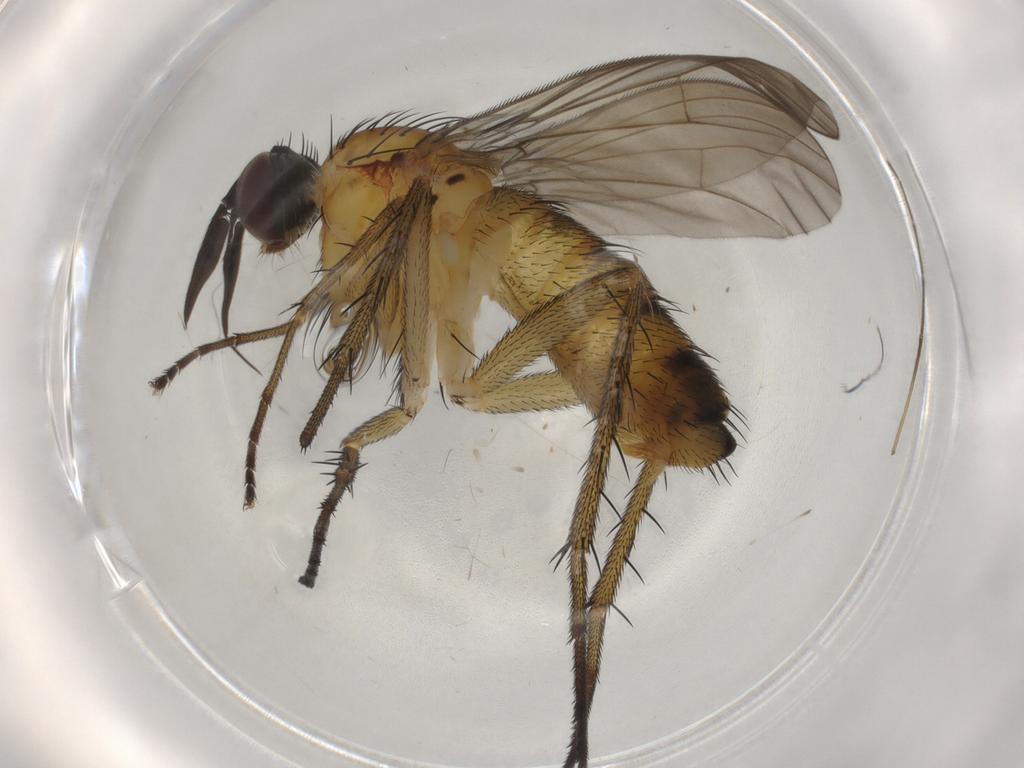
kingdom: Animalia
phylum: Arthropoda
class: Insecta
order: Diptera
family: Dolichopodidae
